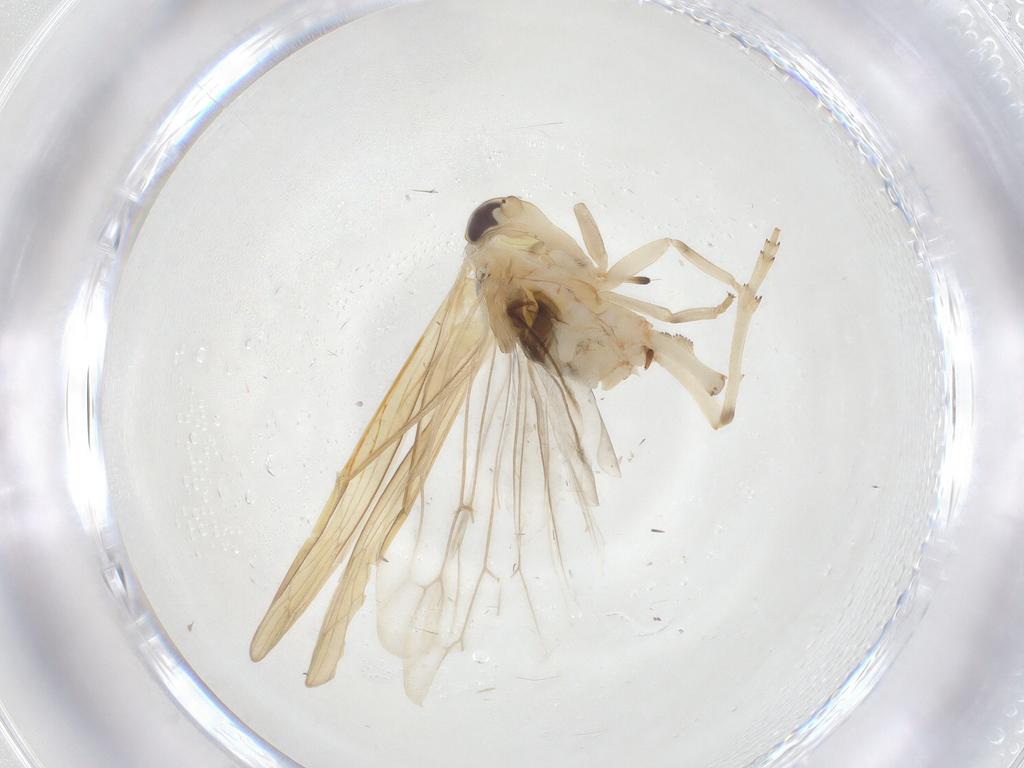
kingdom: Animalia
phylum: Arthropoda
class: Insecta
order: Hemiptera
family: Achilidae
